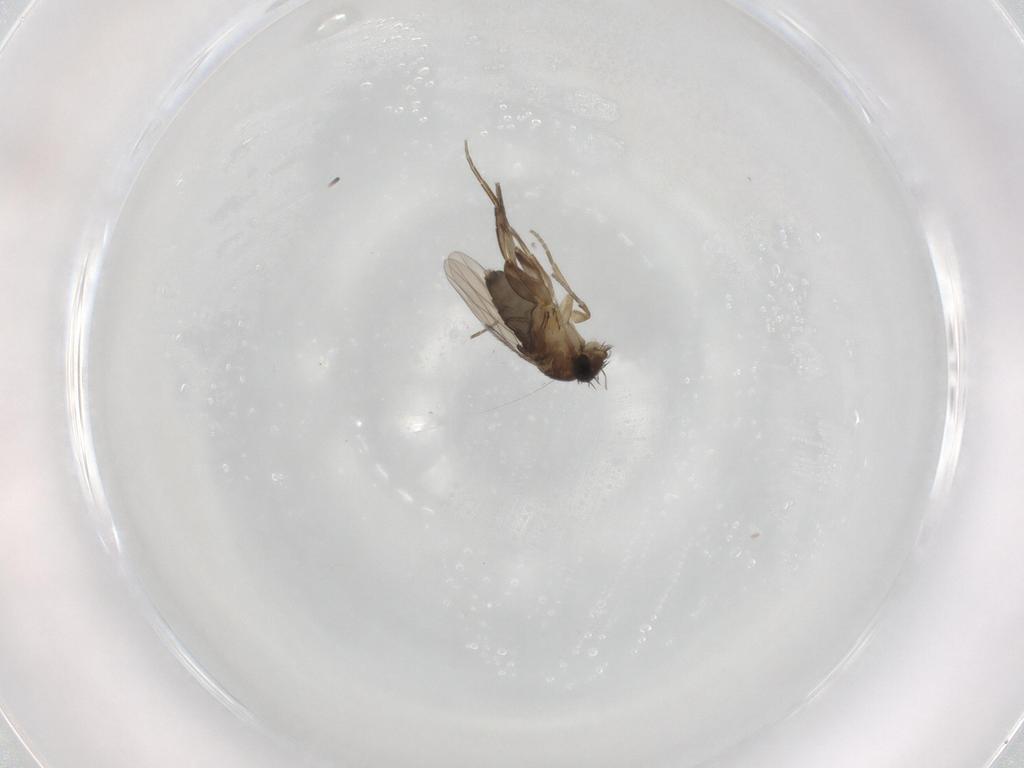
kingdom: Animalia
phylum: Arthropoda
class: Insecta
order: Diptera
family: Phoridae
